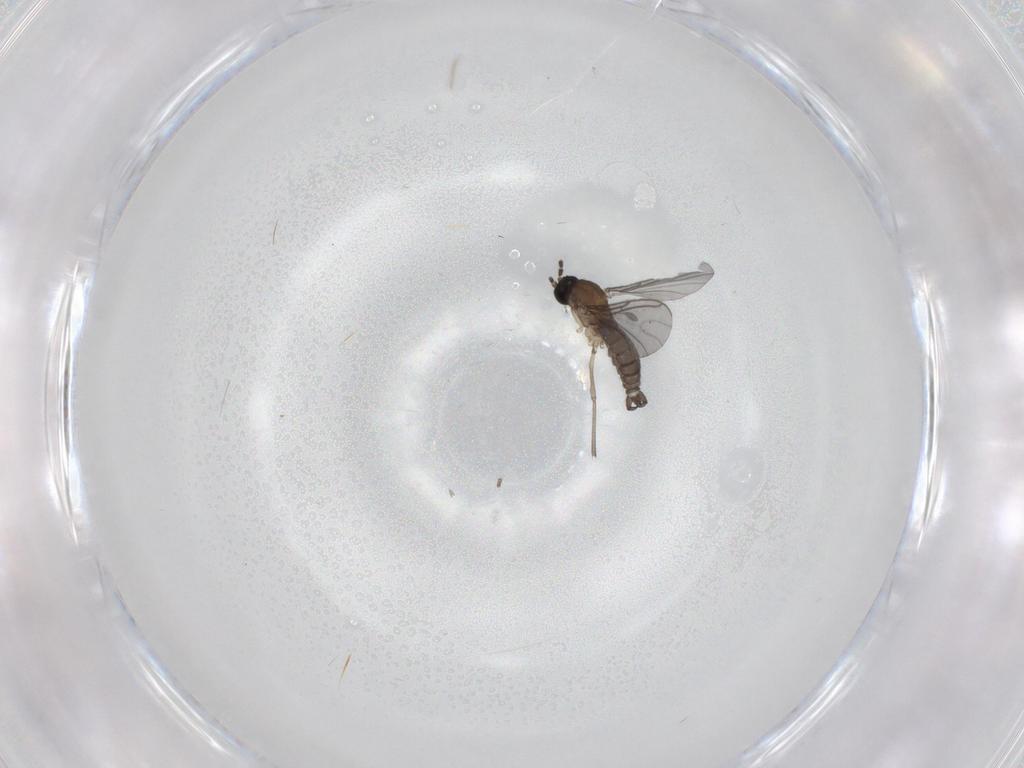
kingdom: Animalia
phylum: Arthropoda
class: Insecta
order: Diptera
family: Sciaridae
